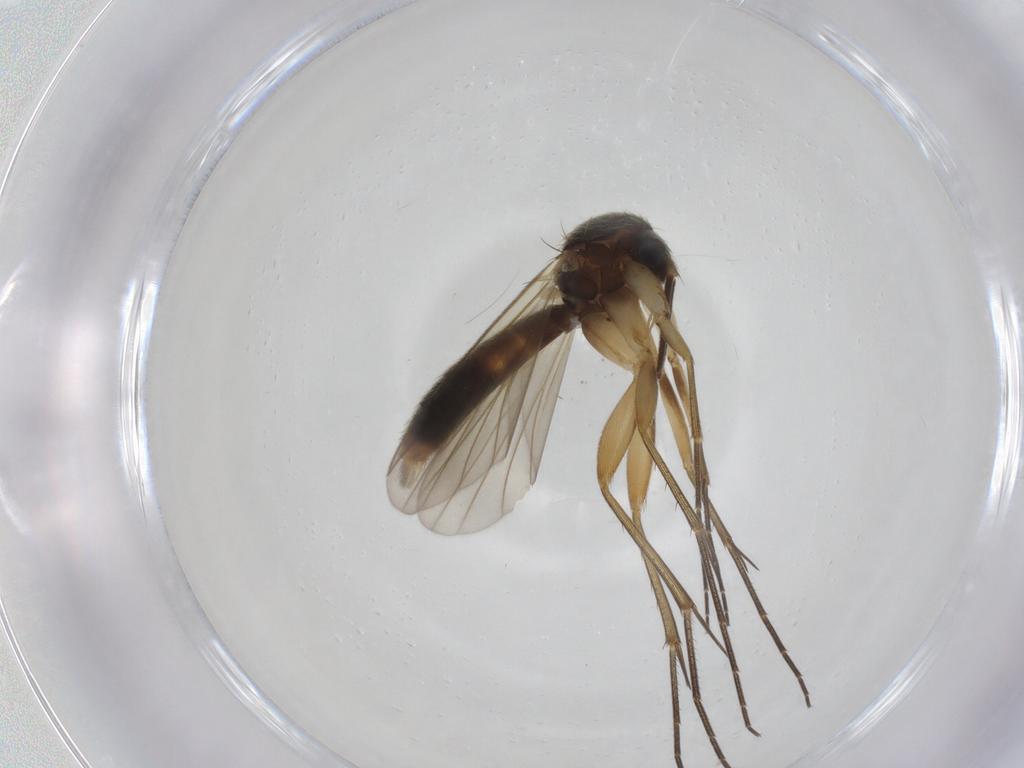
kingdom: Animalia
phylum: Arthropoda
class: Insecta
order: Diptera
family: Mycetophilidae
